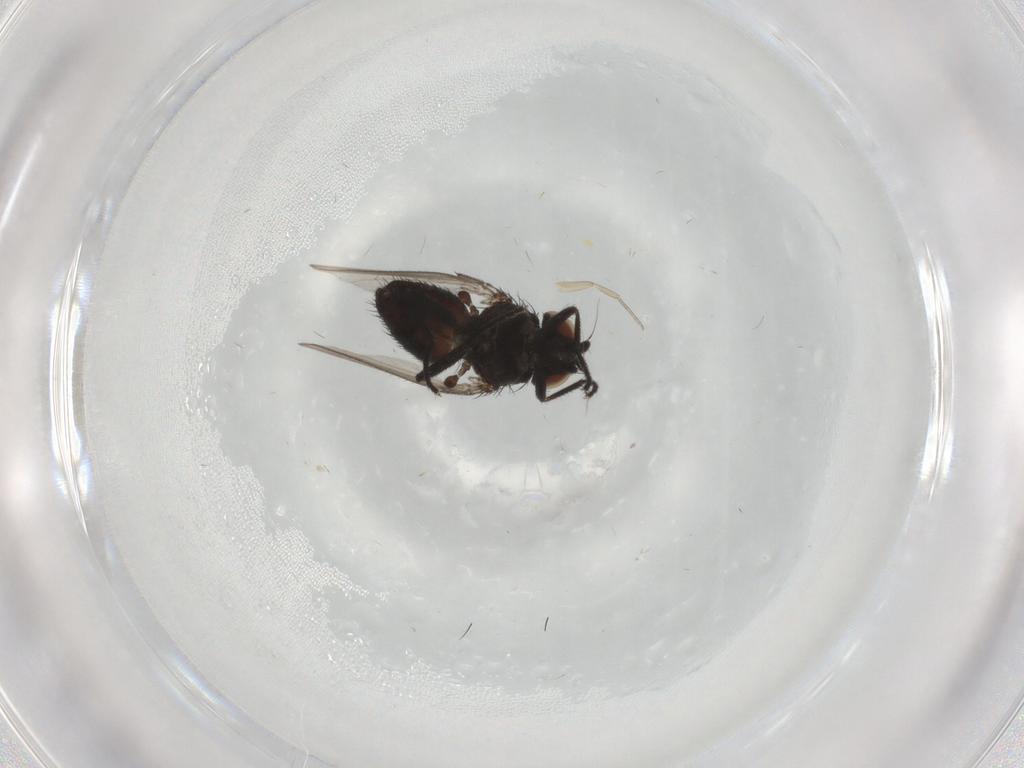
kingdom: Animalia
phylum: Arthropoda
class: Insecta
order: Diptera
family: Milichiidae
